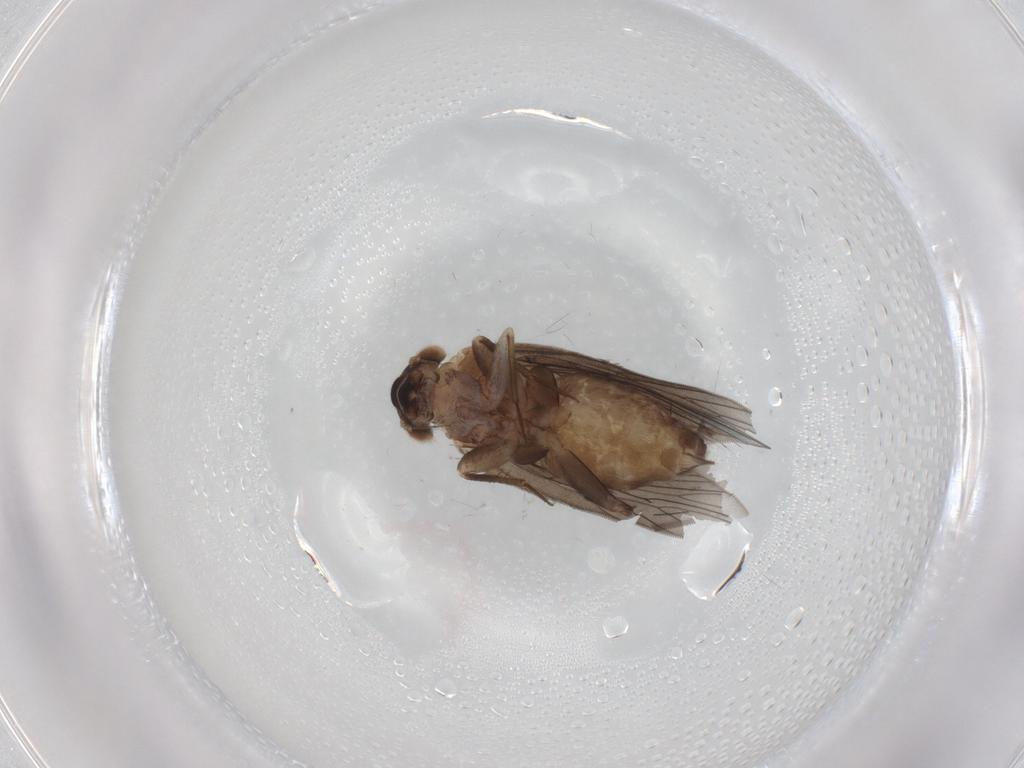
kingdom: Animalia
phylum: Arthropoda
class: Insecta
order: Psocodea
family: Lepidopsocidae
